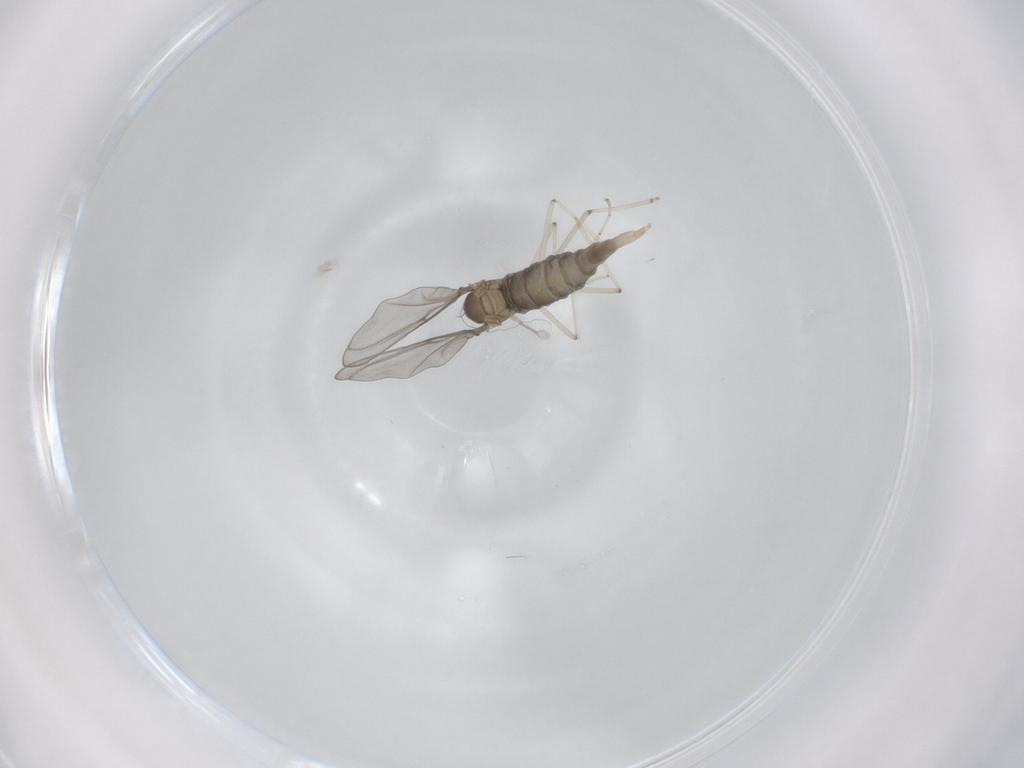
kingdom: Animalia
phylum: Arthropoda
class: Insecta
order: Diptera
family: Cecidomyiidae
